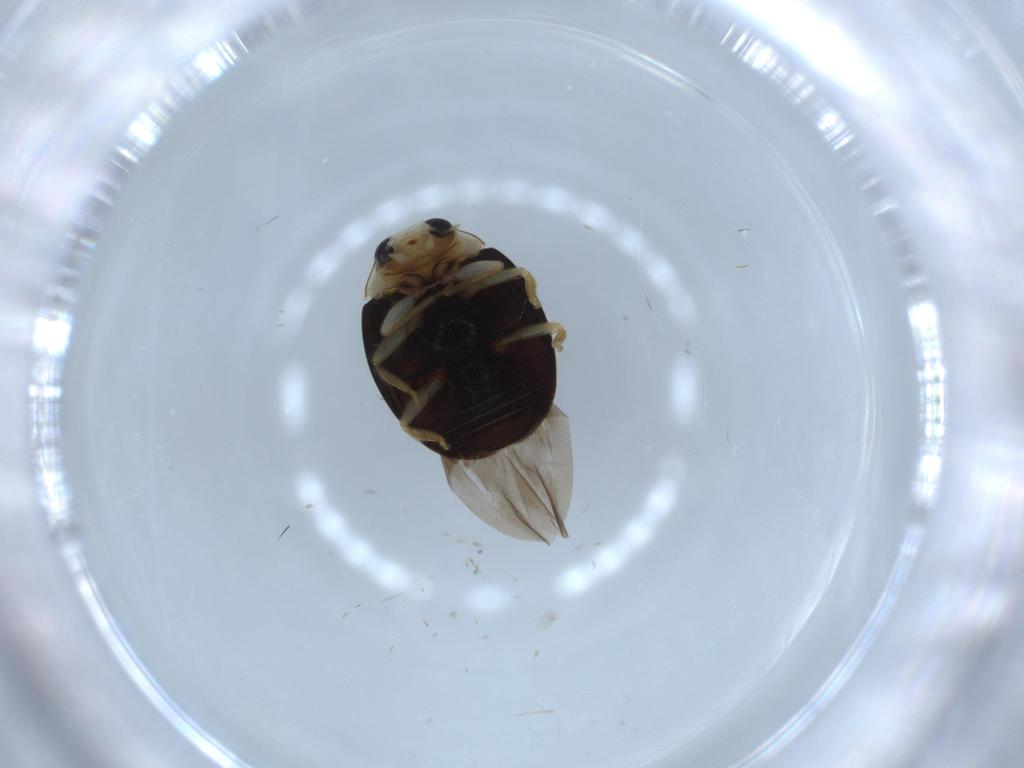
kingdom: Animalia
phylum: Arthropoda
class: Insecta
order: Coleoptera
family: Coccinellidae
